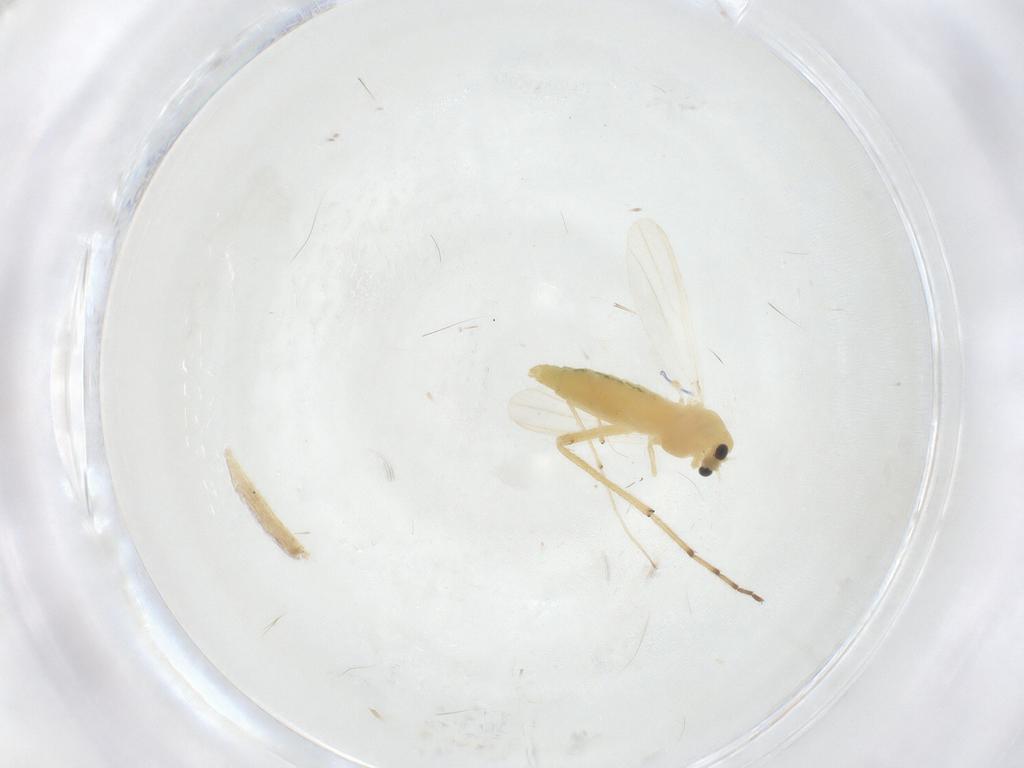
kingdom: Animalia
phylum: Arthropoda
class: Insecta
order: Diptera
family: Chironomidae
